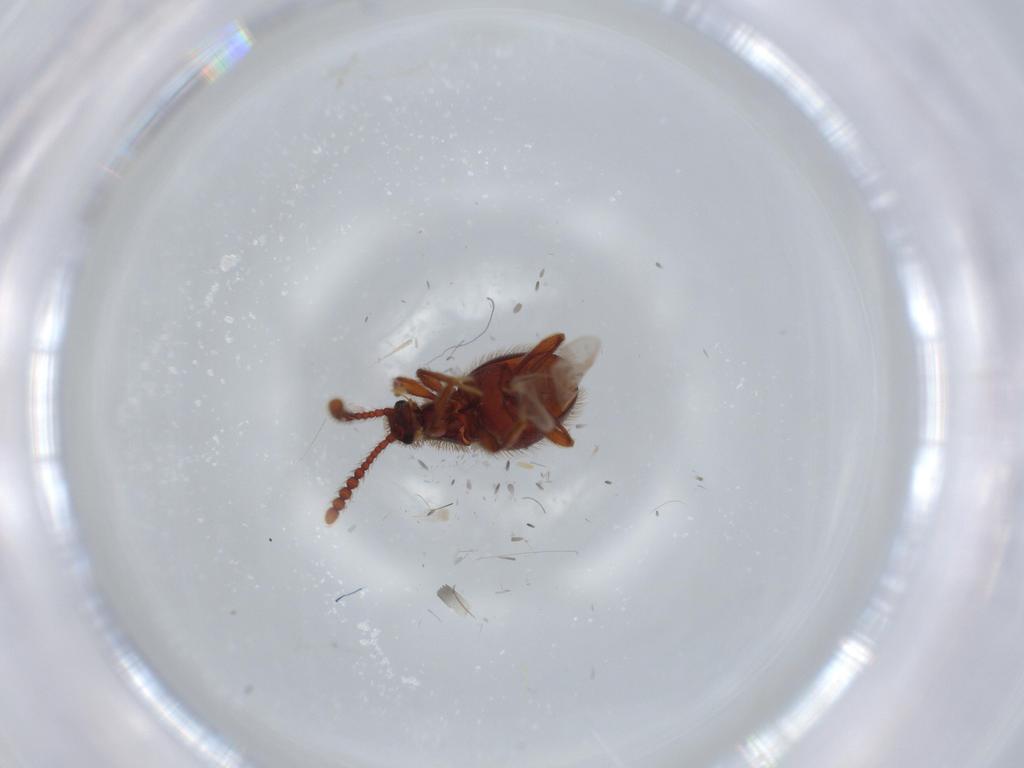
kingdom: Animalia
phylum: Arthropoda
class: Insecta
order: Coleoptera
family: Staphylinidae
